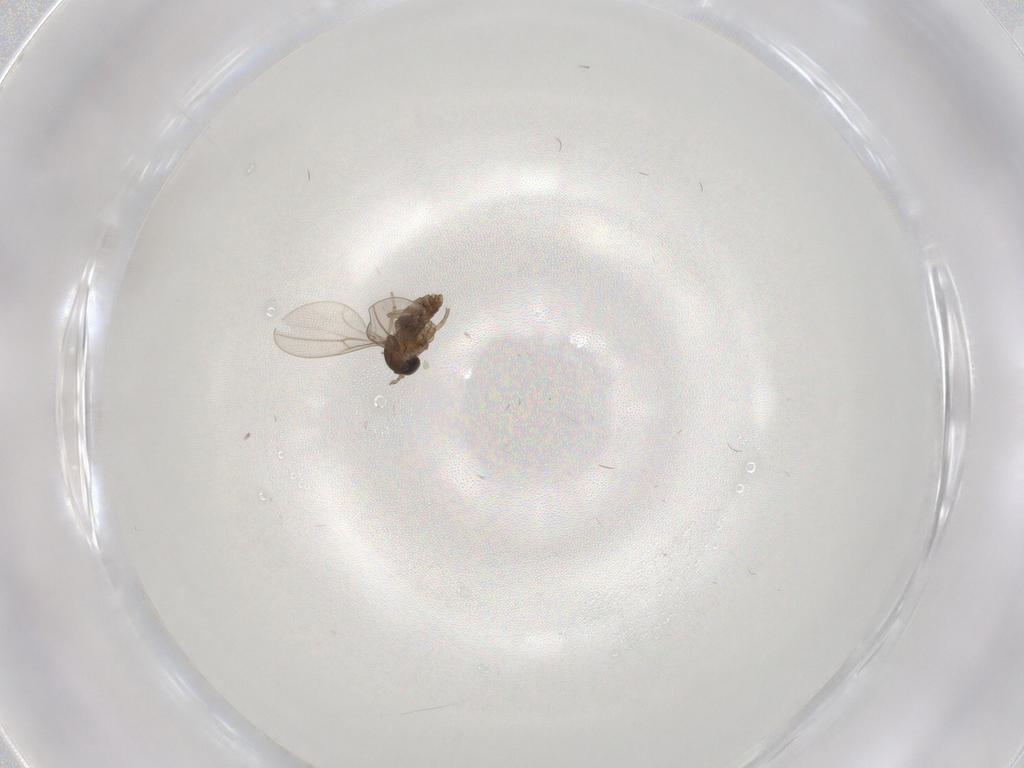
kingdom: Animalia
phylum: Arthropoda
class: Insecta
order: Diptera
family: Cecidomyiidae
